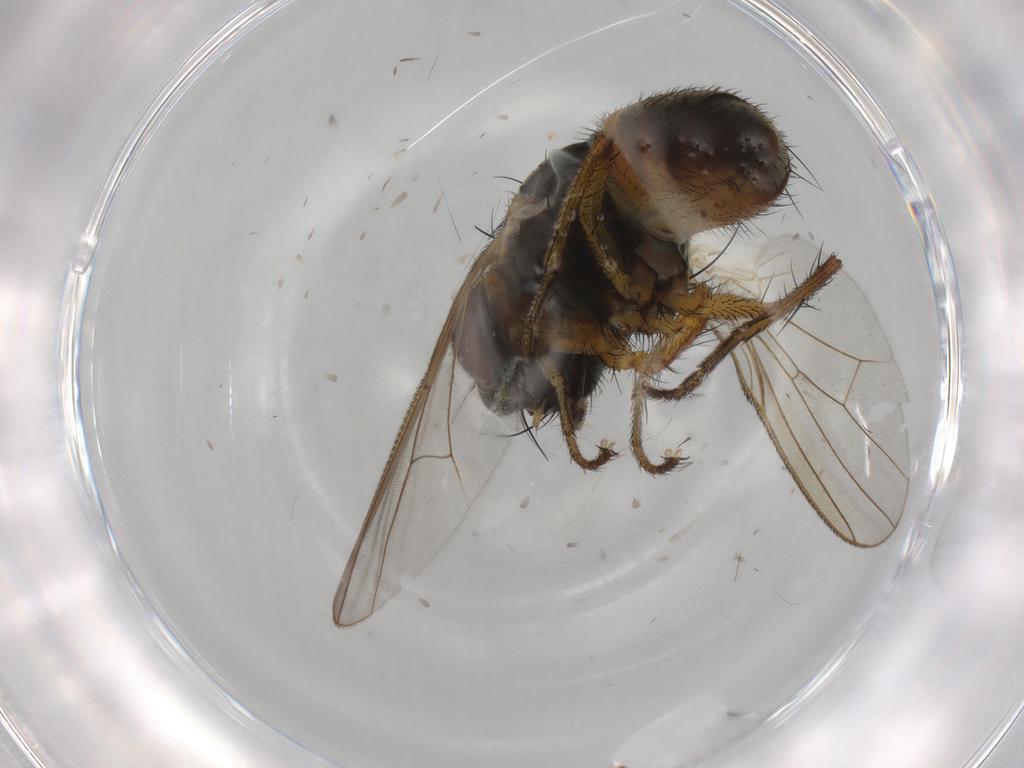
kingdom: Animalia
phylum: Arthropoda
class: Insecta
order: Diptera
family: Muscidae
